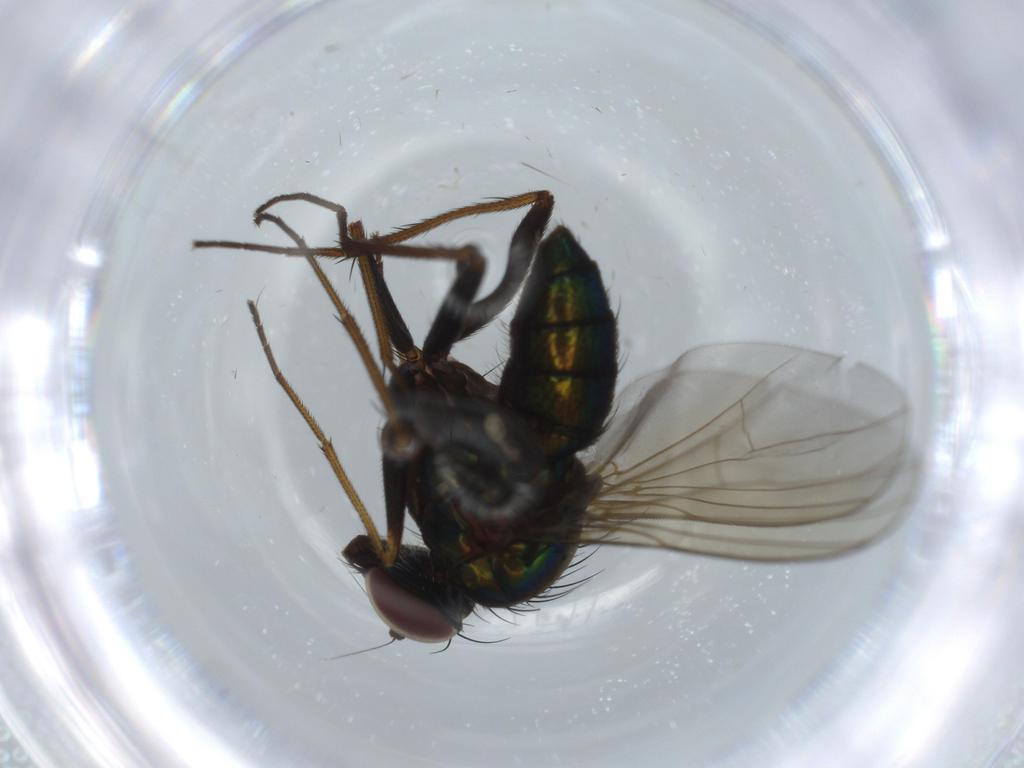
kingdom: Animalia
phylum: Arthropoda
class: Insecta
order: Diptera
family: Dolichopodidae
